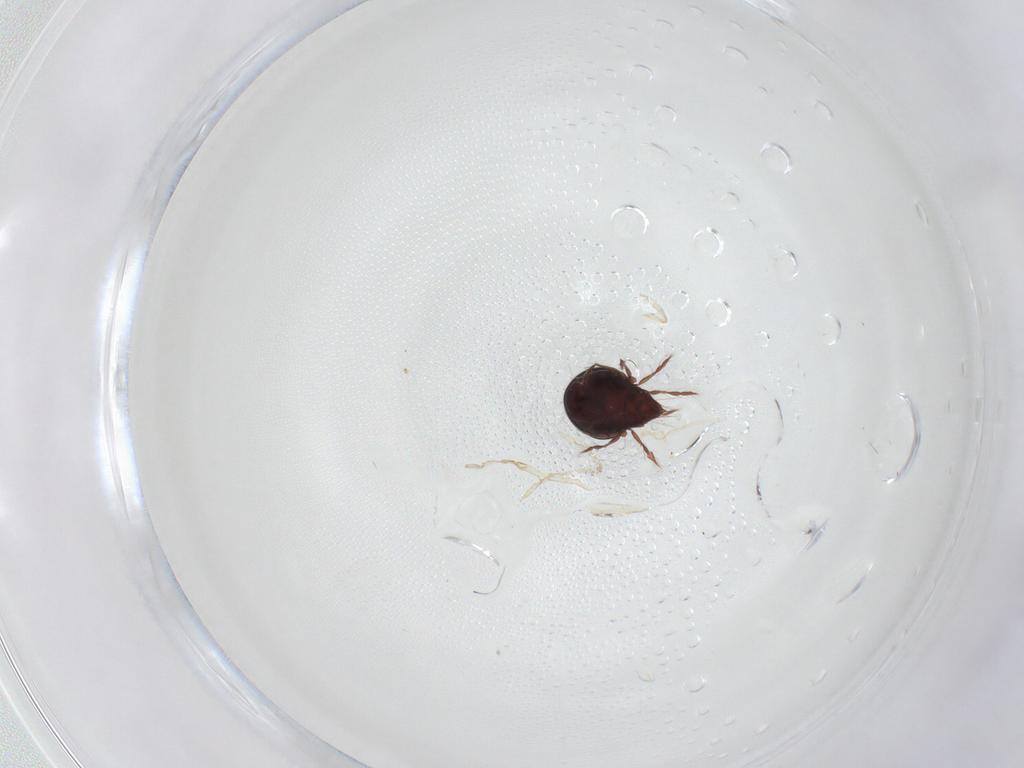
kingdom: Animalia
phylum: Arthropoda
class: Arachnida
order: Sarcoptiformes
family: Ceratoppiidae
